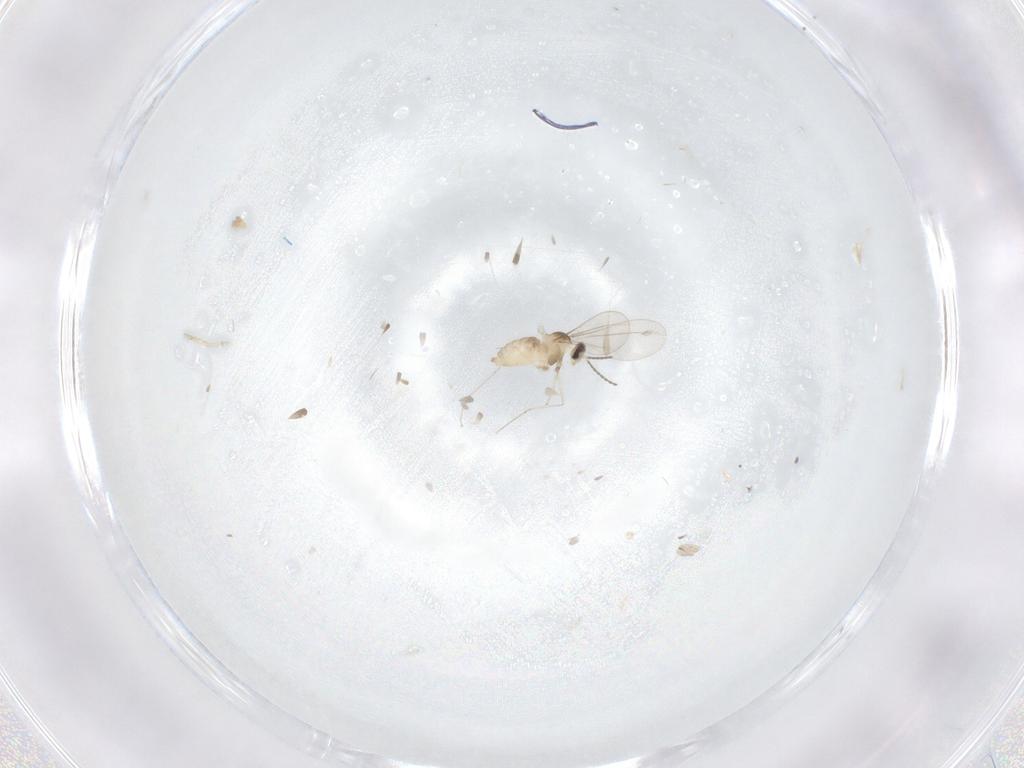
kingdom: Animalia
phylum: Arthropoda
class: Insecta
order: Diptera
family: Cecidomyiidae
